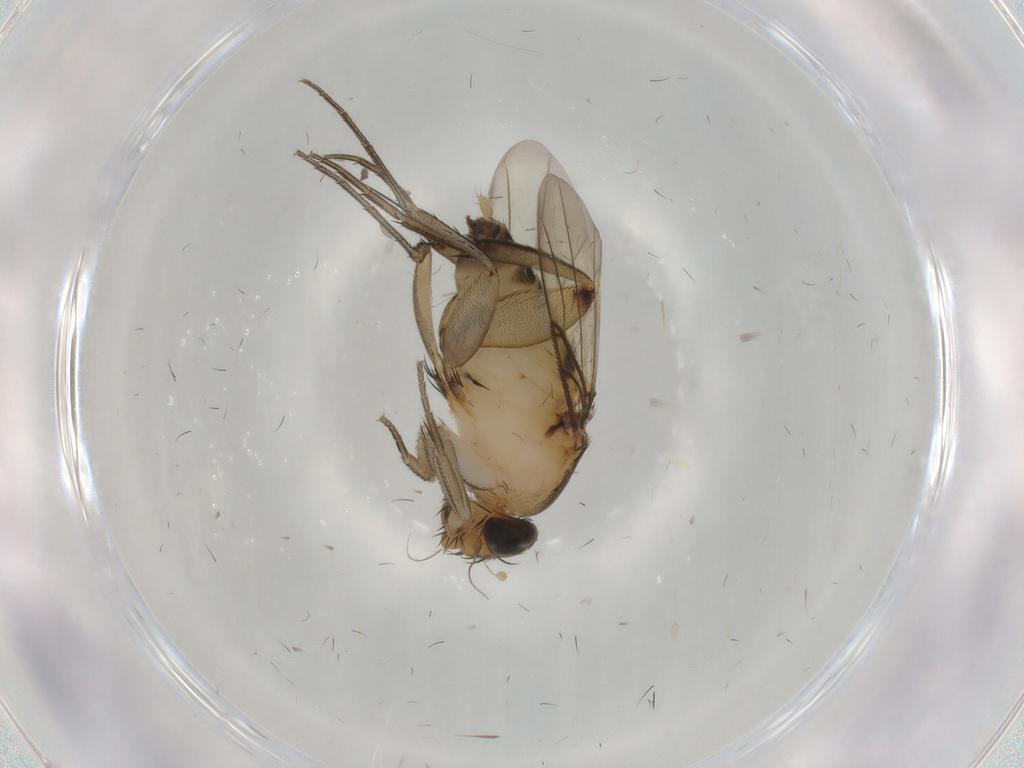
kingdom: Animalia
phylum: Arthropoda
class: Insecta
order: Diptera
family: Sciaridae
